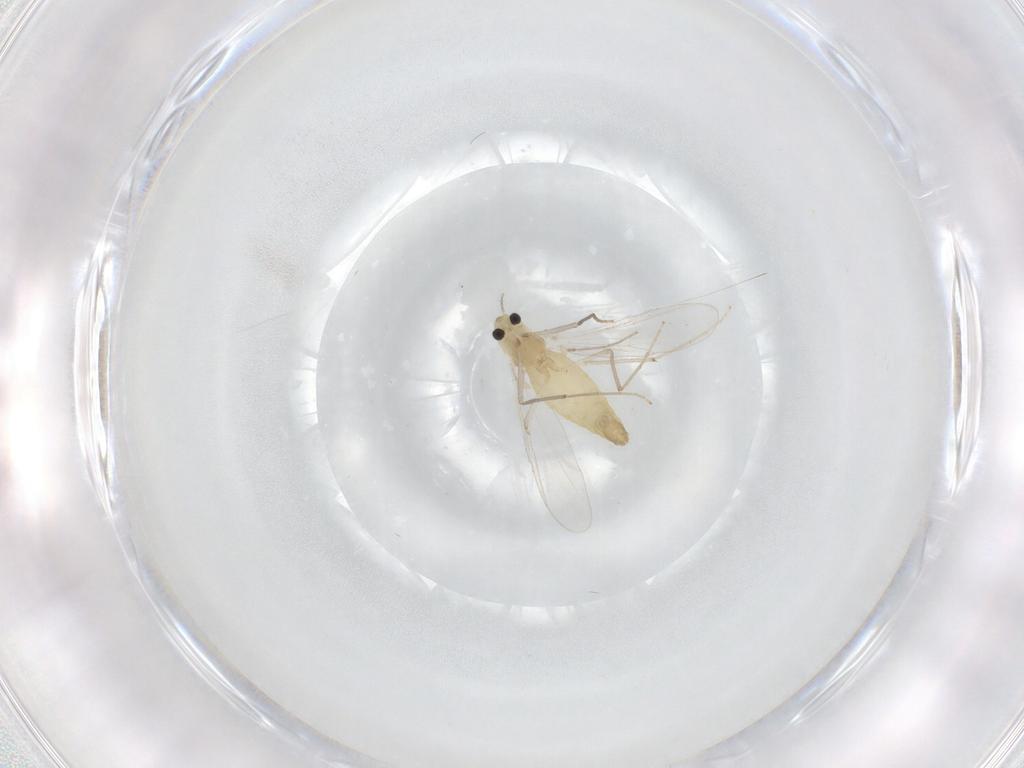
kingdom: Animalia
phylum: Arthropoda
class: Insecta
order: Diptera
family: Chironomidae
